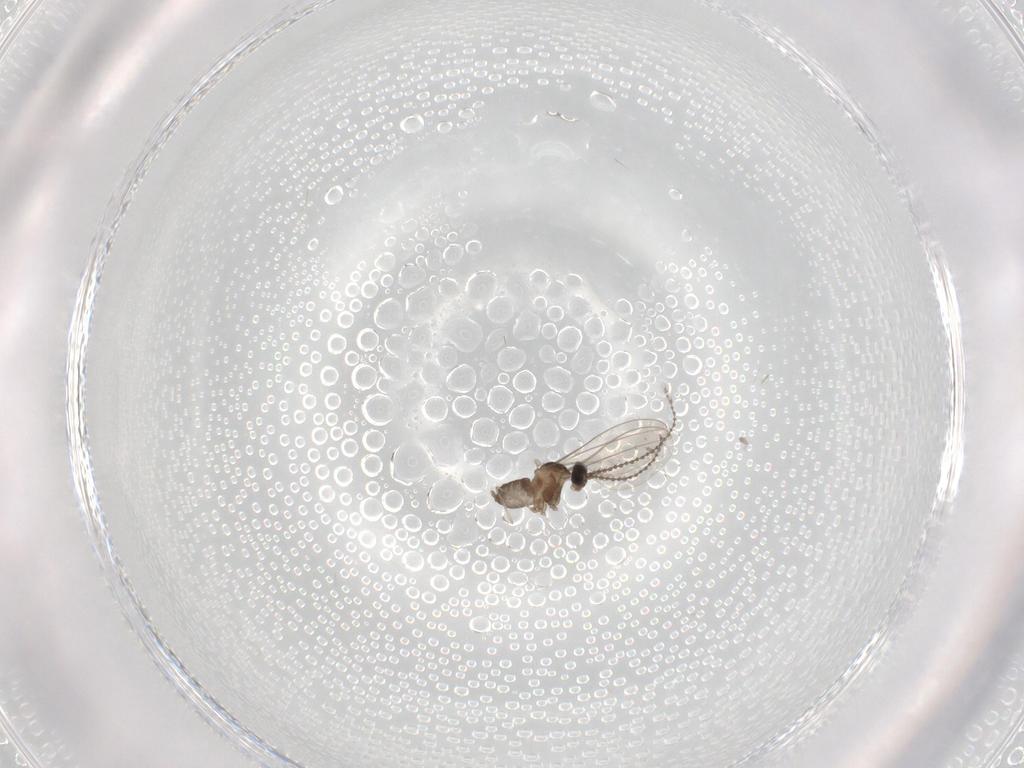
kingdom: Animalia
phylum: Arthropoda
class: Insecta
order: Diptera
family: Cecidomyiidae
